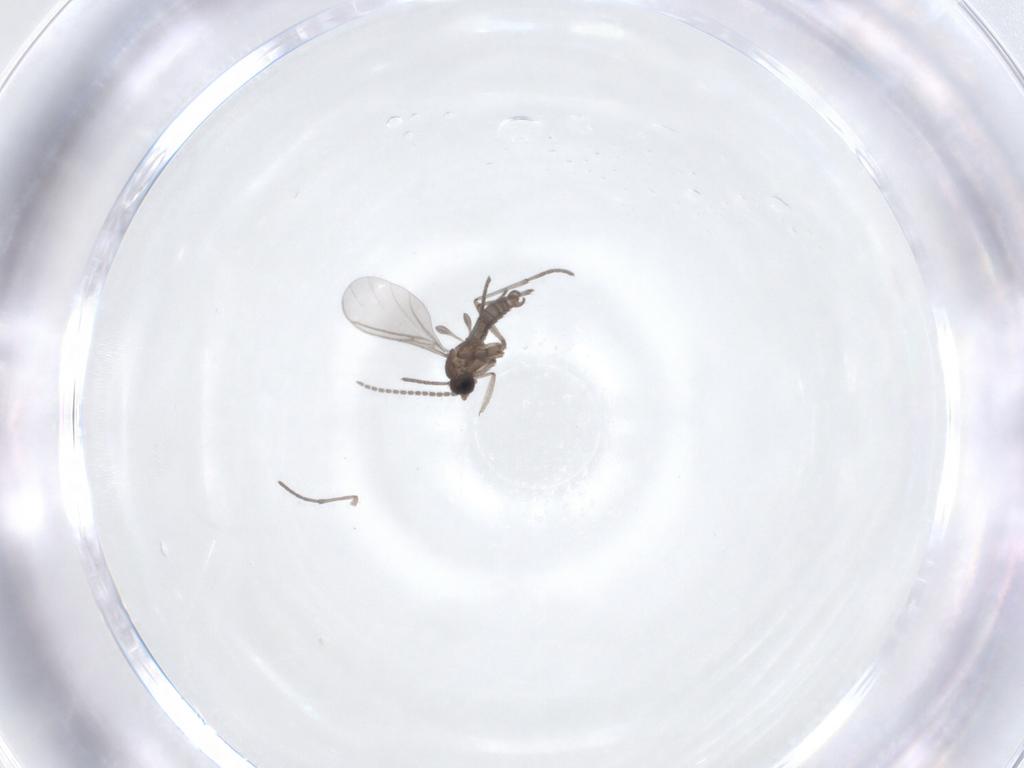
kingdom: Animalia
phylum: Arthropoda
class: Insecta
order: Diptera
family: Sciaridae
